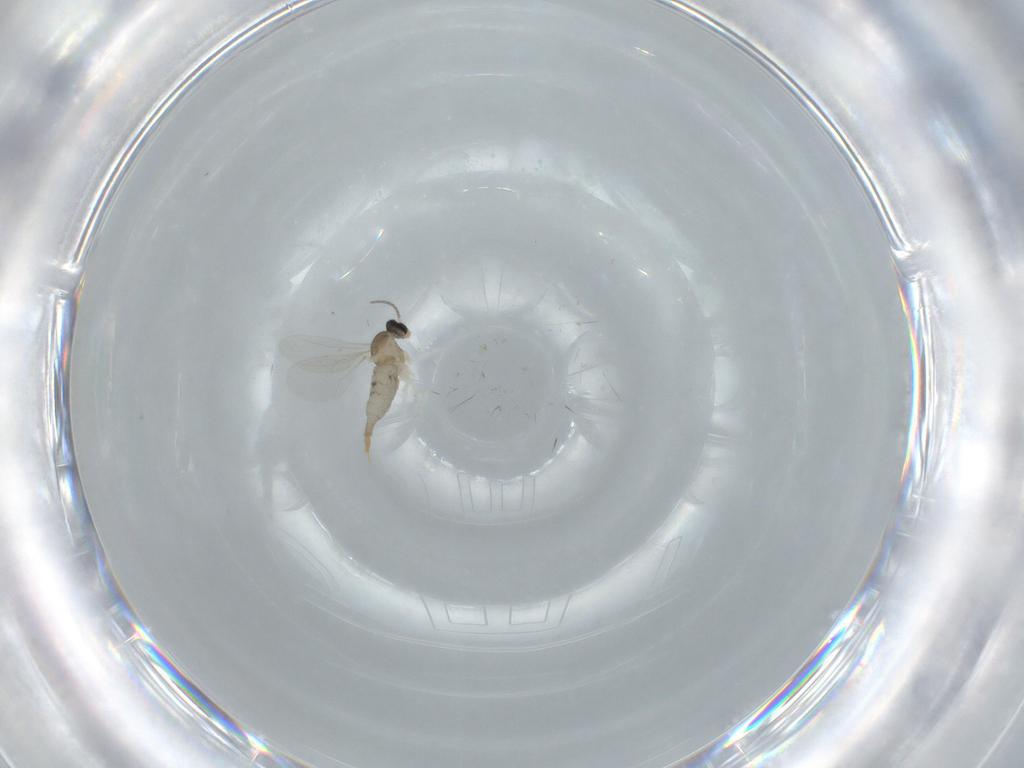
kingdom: Animalia
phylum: Arthropoda
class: Insecta
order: Diptera
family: Cecidomyiidae
